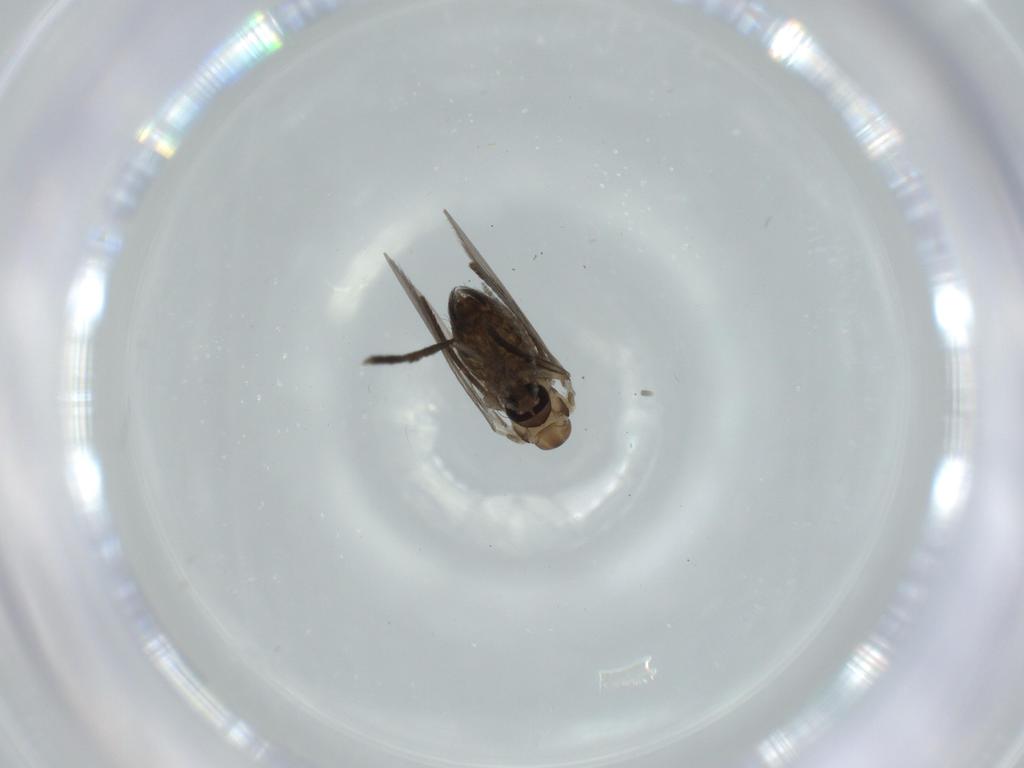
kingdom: Animalia
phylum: Arthropoda
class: Insecta
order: Diptera
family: Psychodidae
